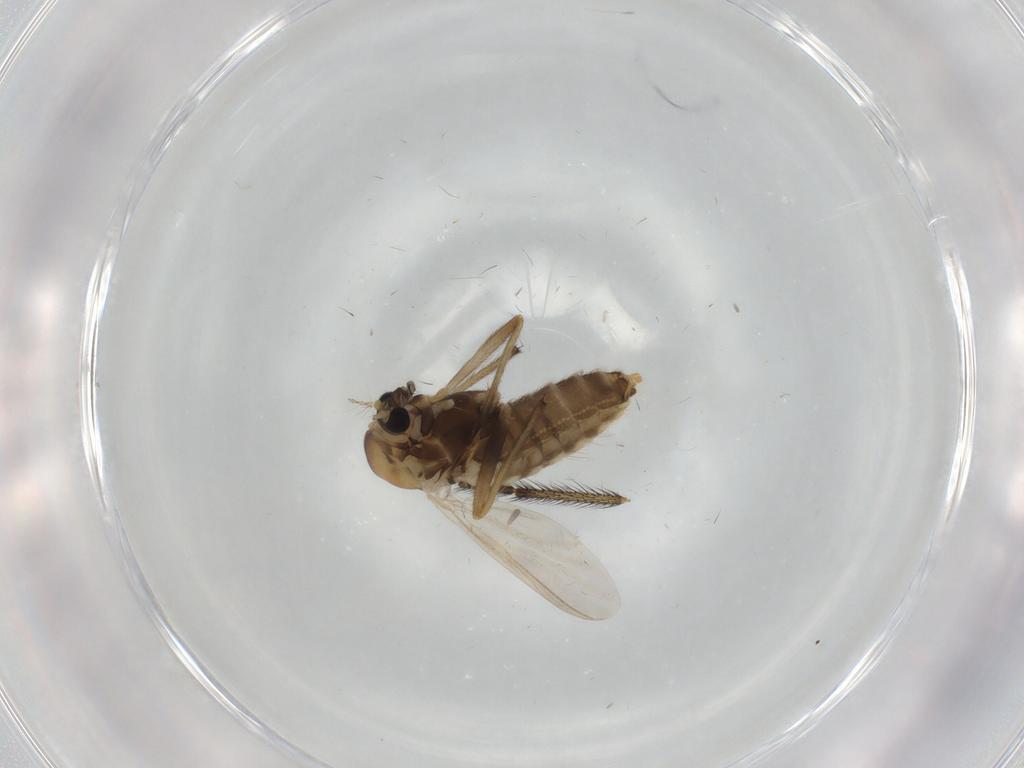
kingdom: Animalia
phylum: Arthropoda
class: Insecta
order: Diptera
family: Chironomidae
